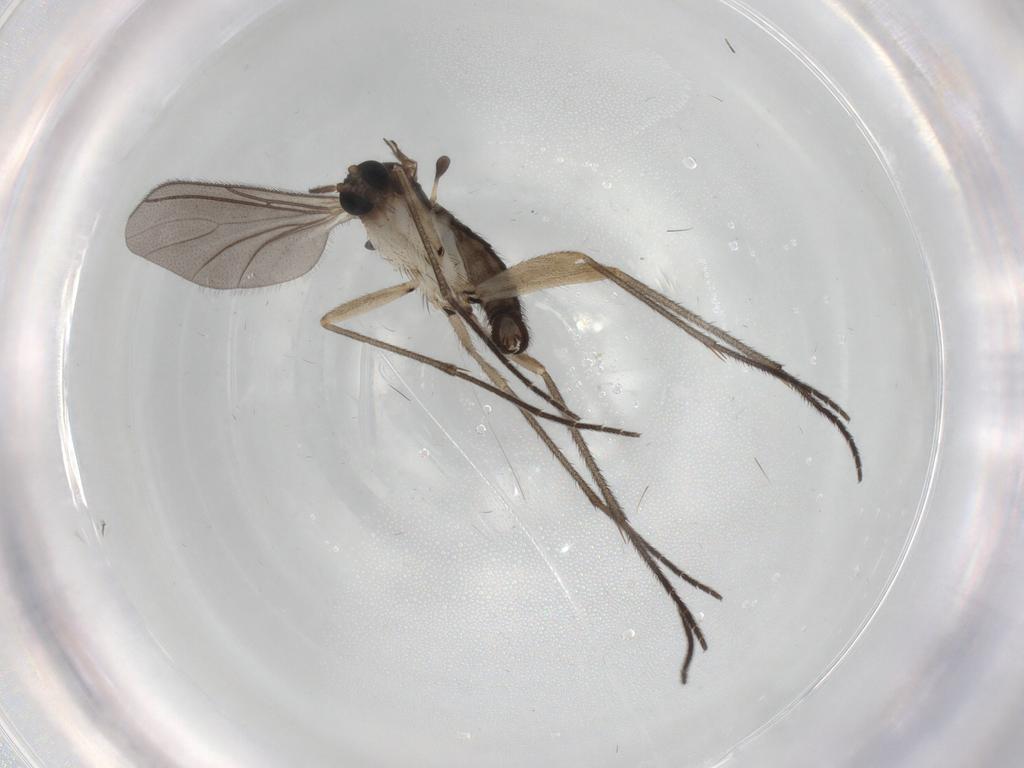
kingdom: Animalia
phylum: Arthropoda
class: Insecta
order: Diptera
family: Sciaridae
